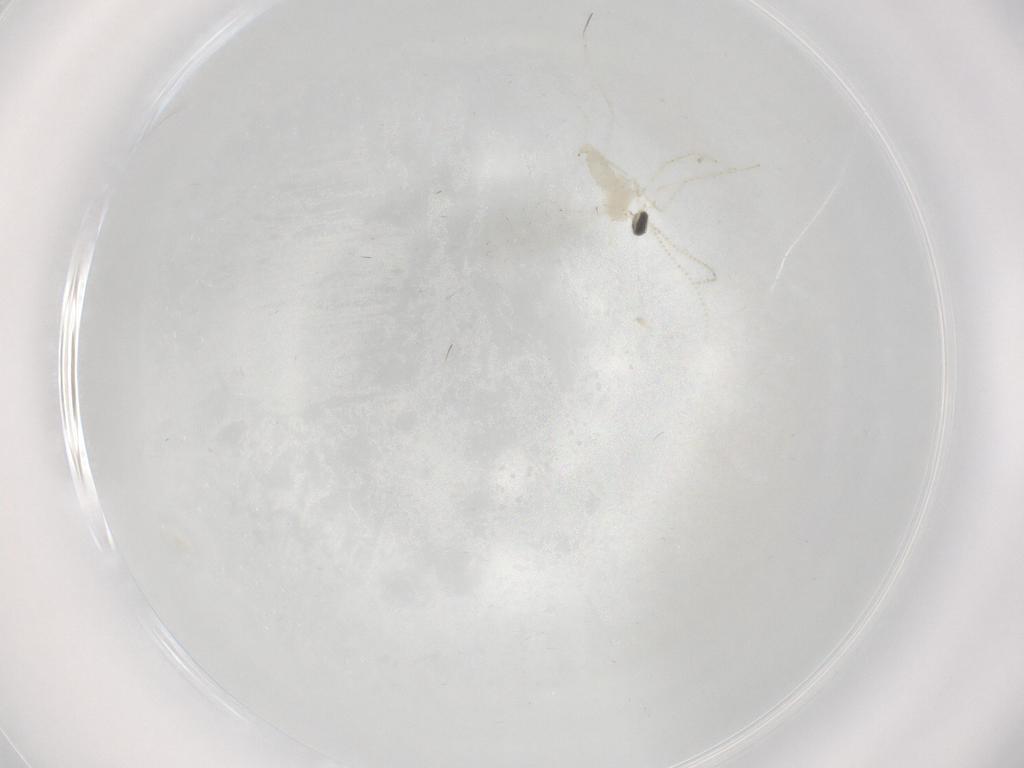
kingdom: Animalia
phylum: Arthropoda
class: Insecta
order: Diptera
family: Cecidomyiidae
